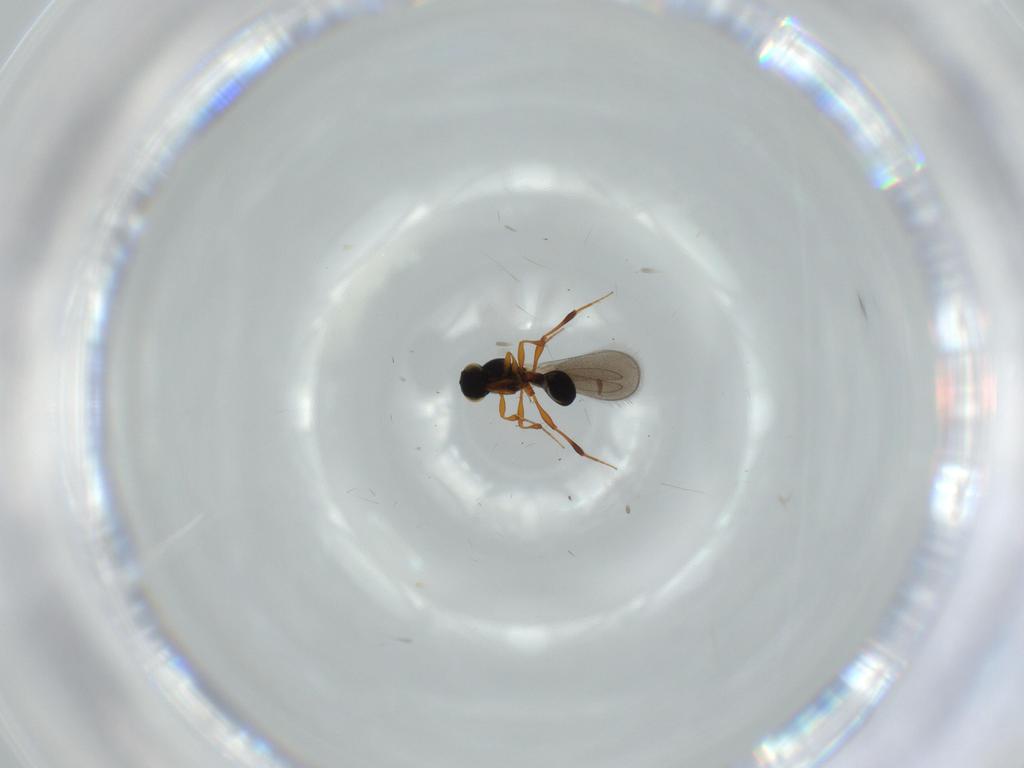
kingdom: Animalia
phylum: Arthropoda
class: Insecta
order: Hymenoptera
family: Platygastridae
